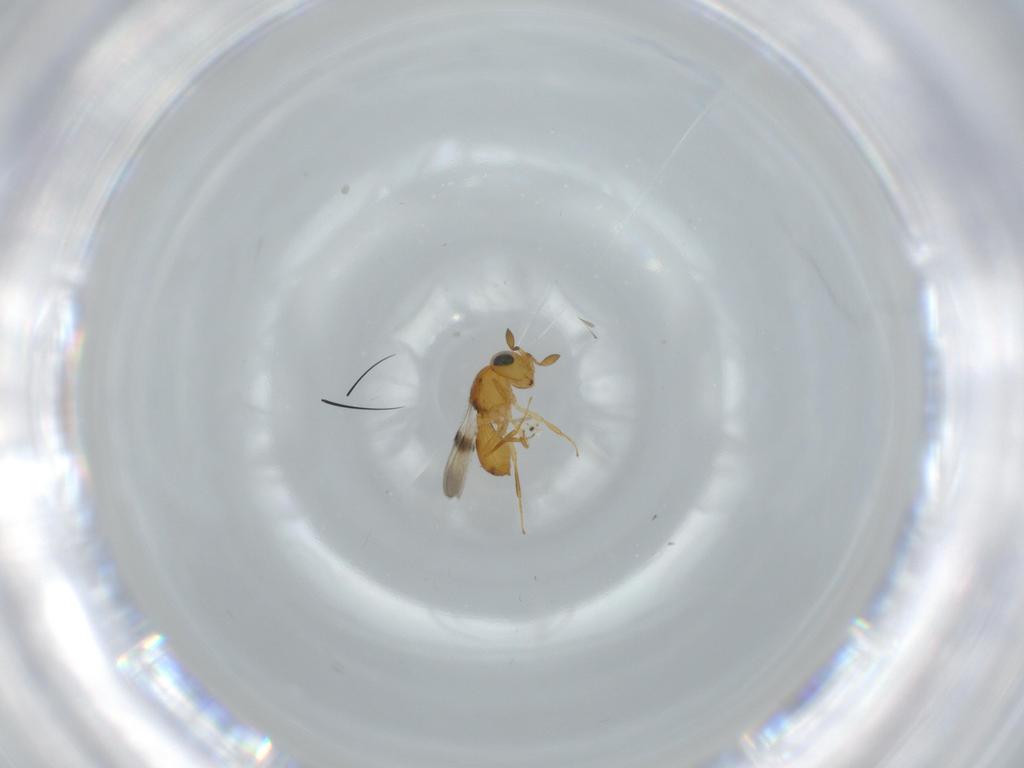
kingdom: Animalia
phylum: Arthropoda
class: Insecta
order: Hymenoptera
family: Scelionidae
